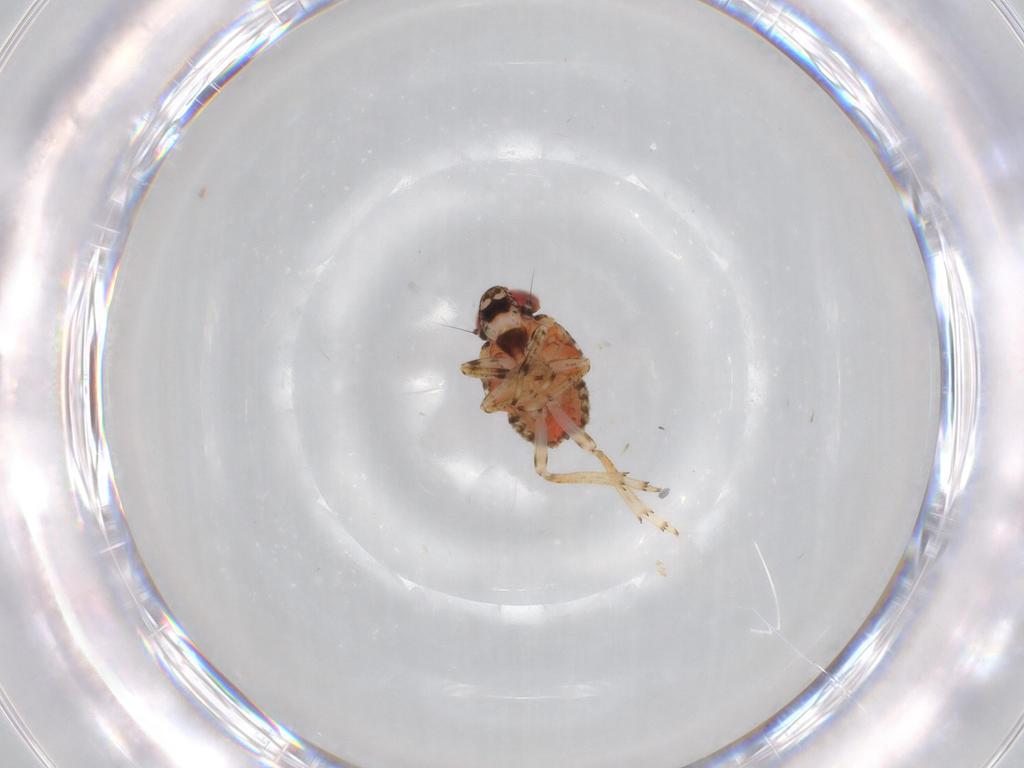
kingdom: Animalia
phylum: Arthropoda
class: Insecta
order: Hemiptera
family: Issidae
